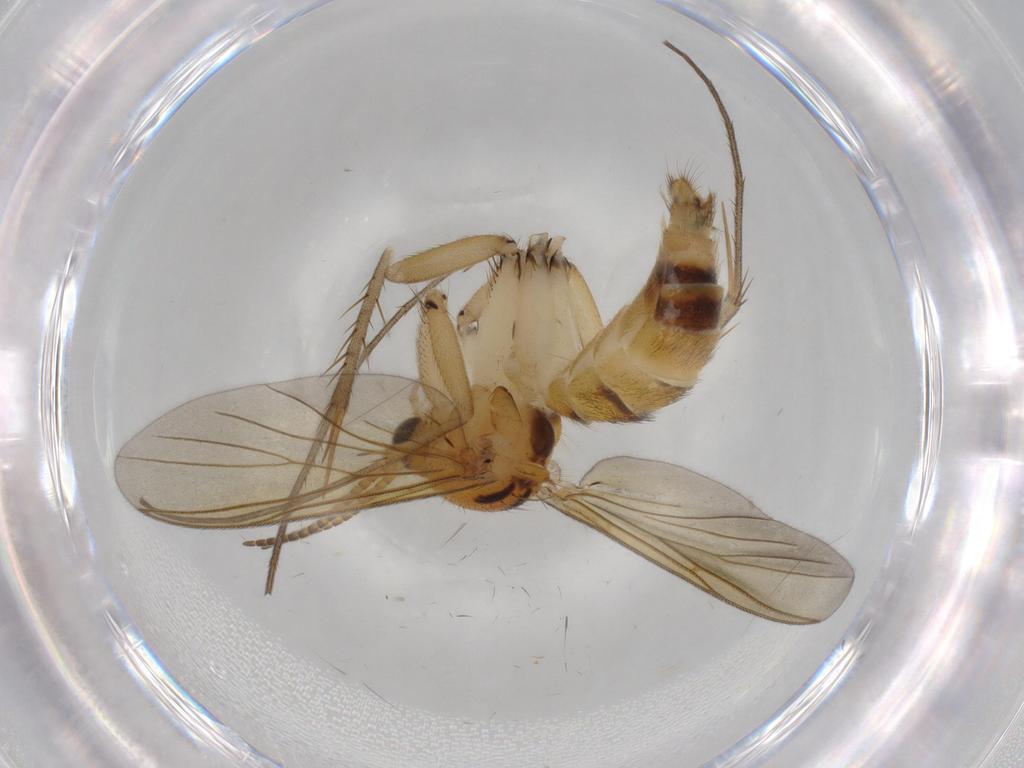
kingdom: Animalia
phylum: Arthropoda
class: Insecta
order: Diptera
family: Mycetophilidae
